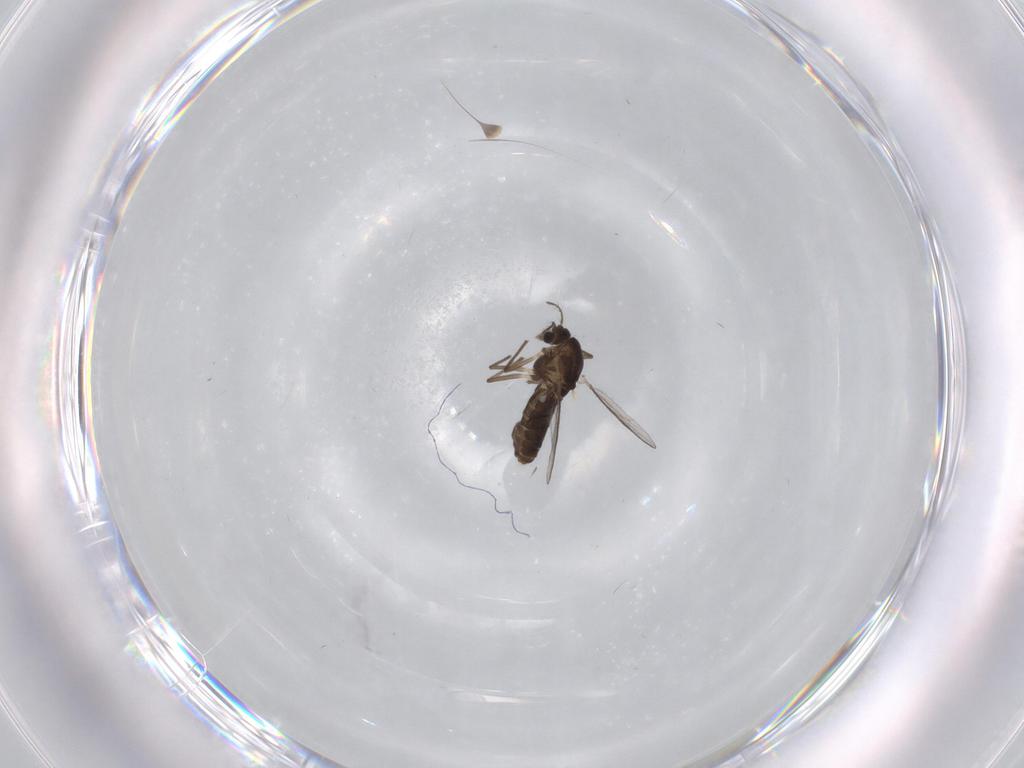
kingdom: Animalia
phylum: Arthropoda
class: Insecta
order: Diptera
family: Chironomidae
